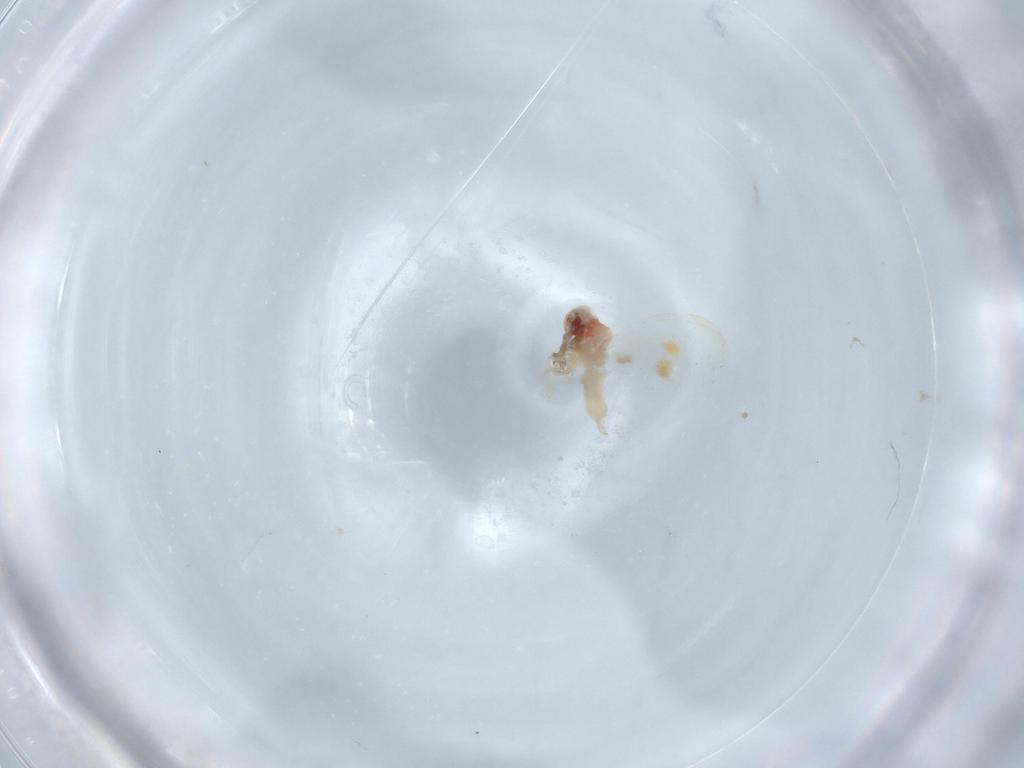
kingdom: Animalia
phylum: Arthropoda
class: Insecta
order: Hemiptera
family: Aleyrodidae
